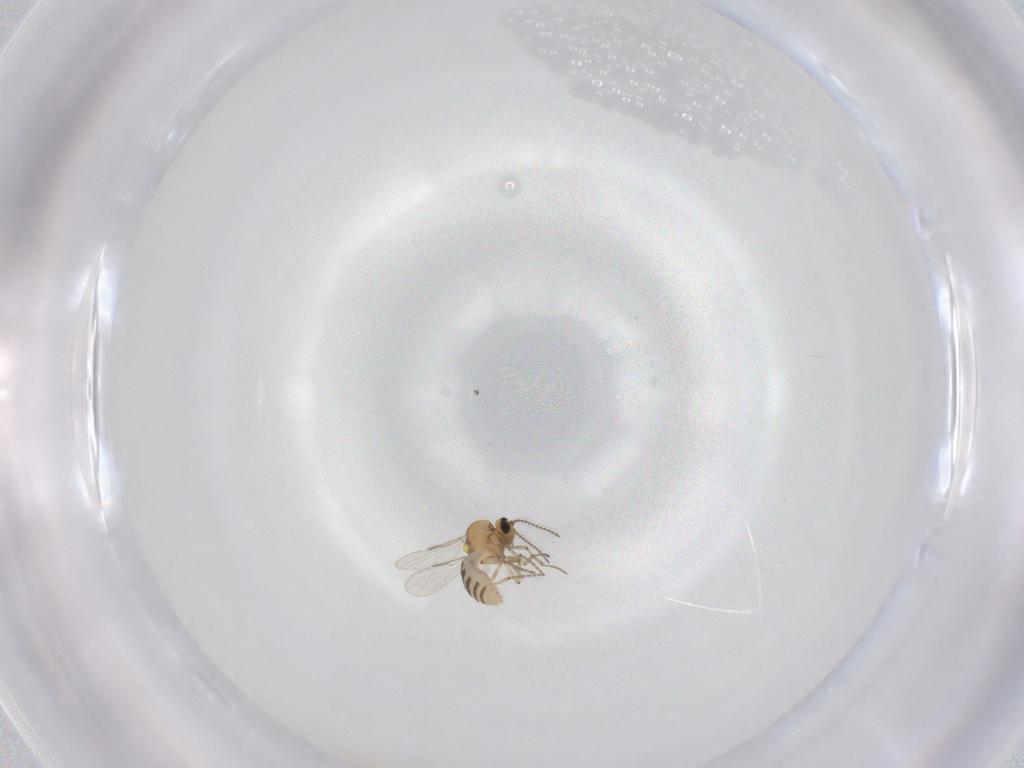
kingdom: Animalia
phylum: Arthropoda
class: Insecta
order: Diptera
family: Ceratopogonidae
